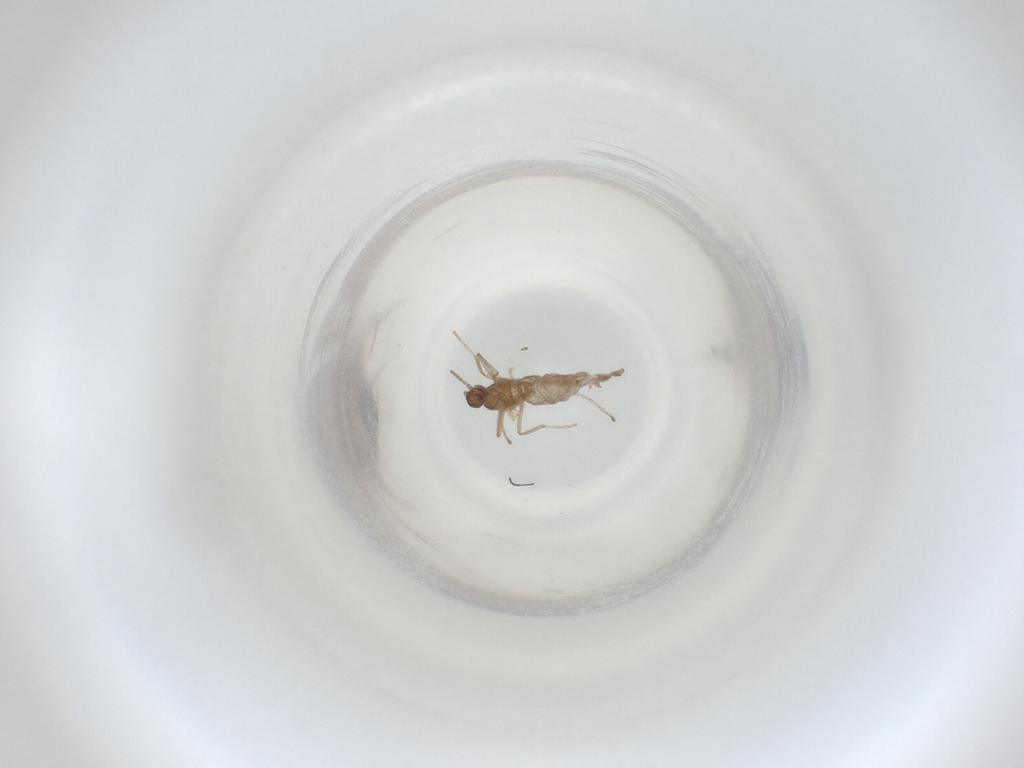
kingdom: Animalia
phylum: Arthropoda
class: Insecta
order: Diptera
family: Cecidomyiidae
